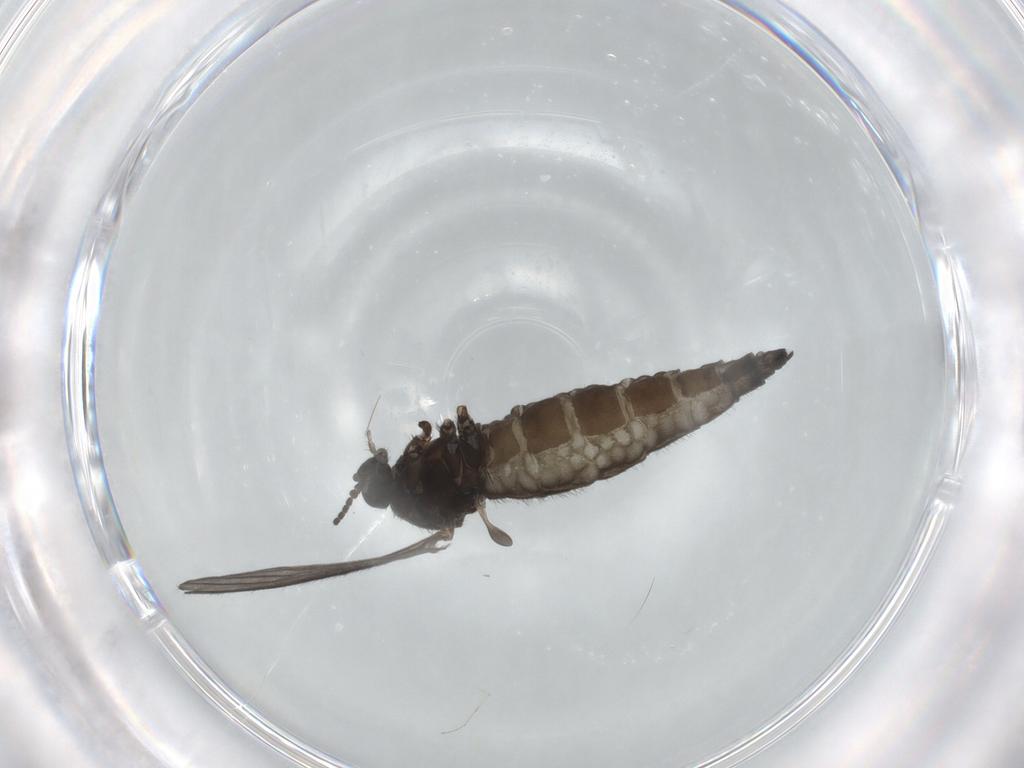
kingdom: Animalia
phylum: Arthropoda
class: Insecta
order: Diptera
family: Sciaridae
